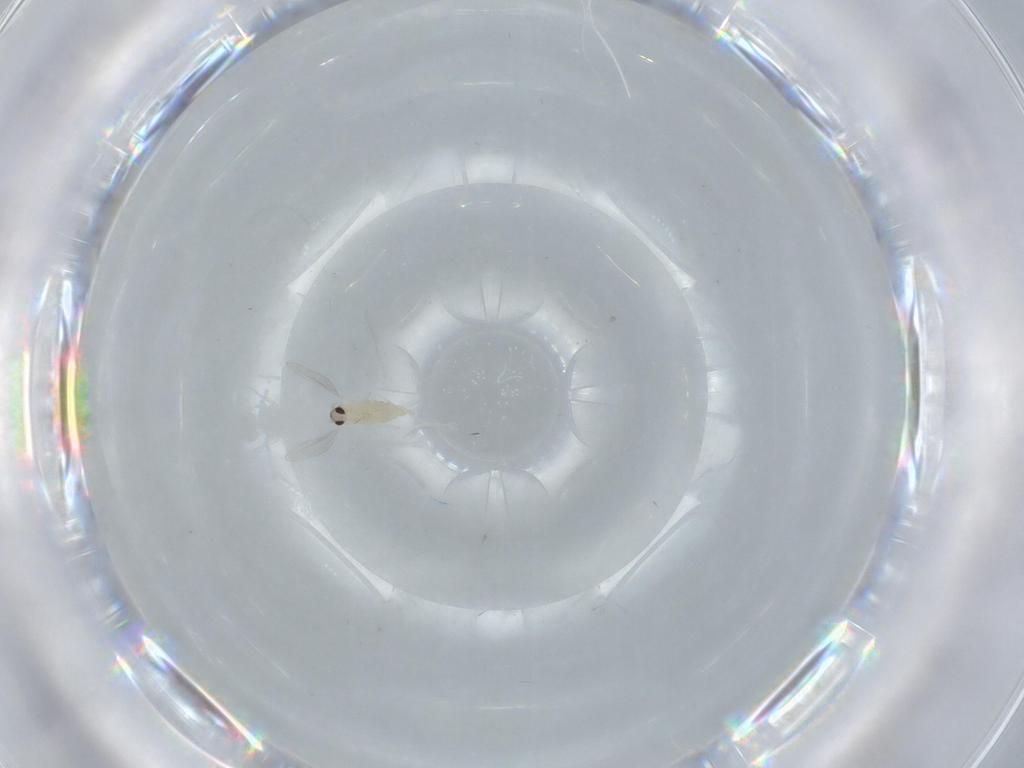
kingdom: Animalia
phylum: Arthropoda
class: Insecta
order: Diptera
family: Cecidomyiidae
